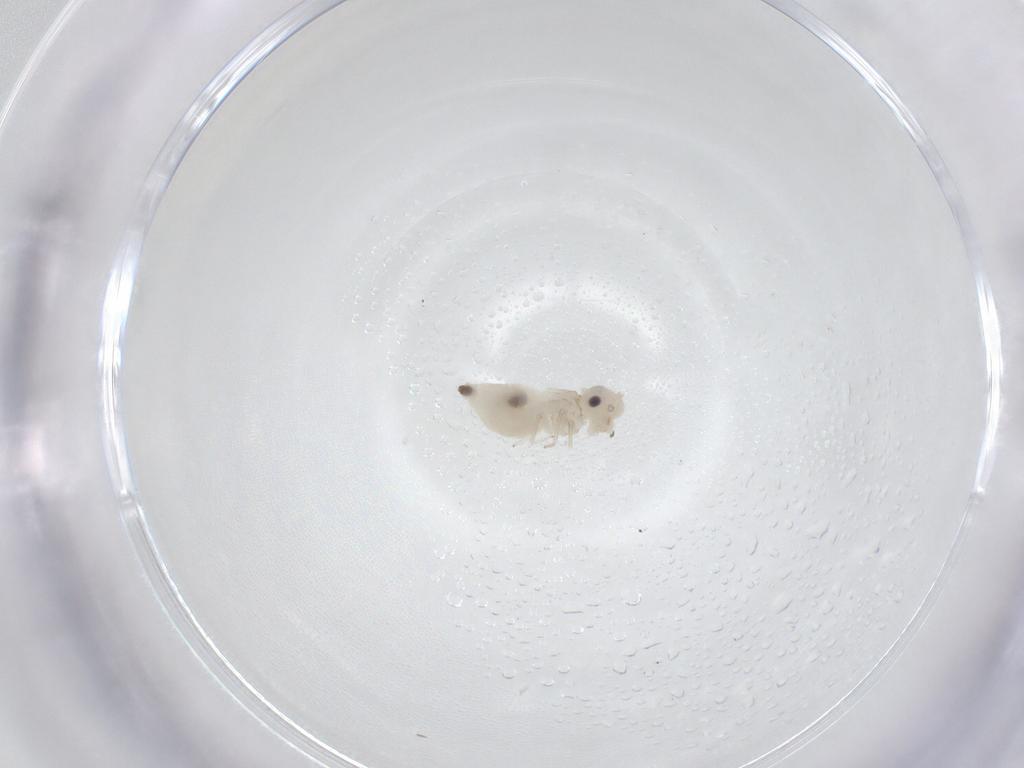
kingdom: Animalia
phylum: Arthropoda
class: Insecta
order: Psocodea
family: Caeciliusidae
